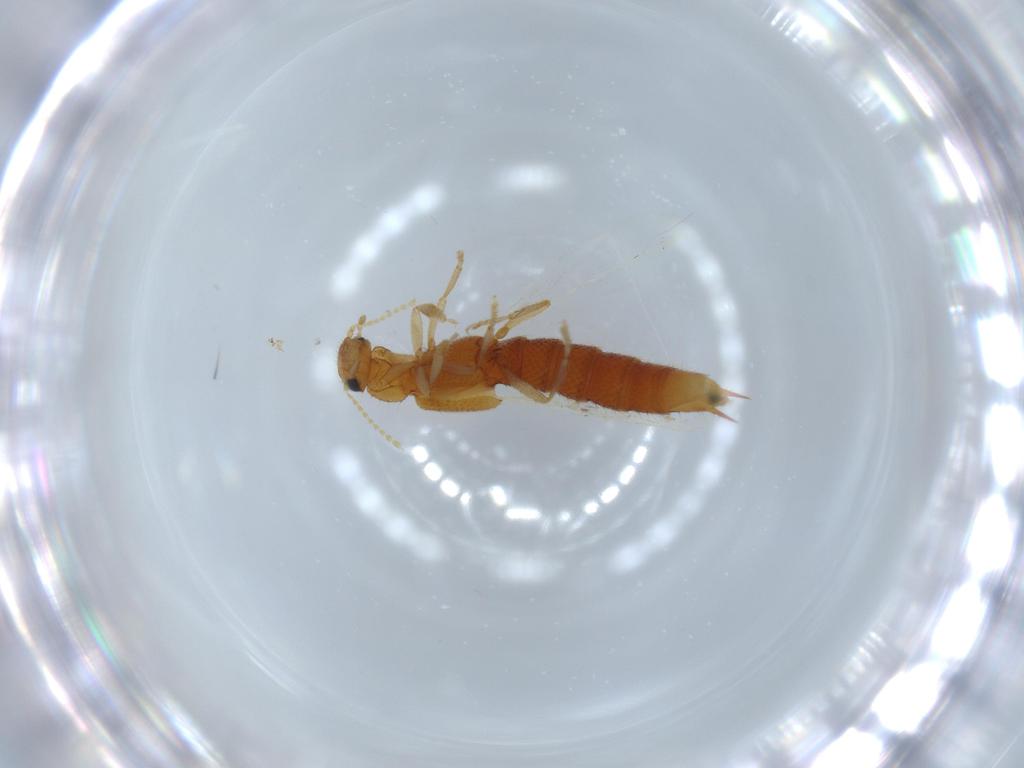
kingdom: Animalia
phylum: Arthropoda
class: Insecta
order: Coleoptera
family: Staphylinidae
